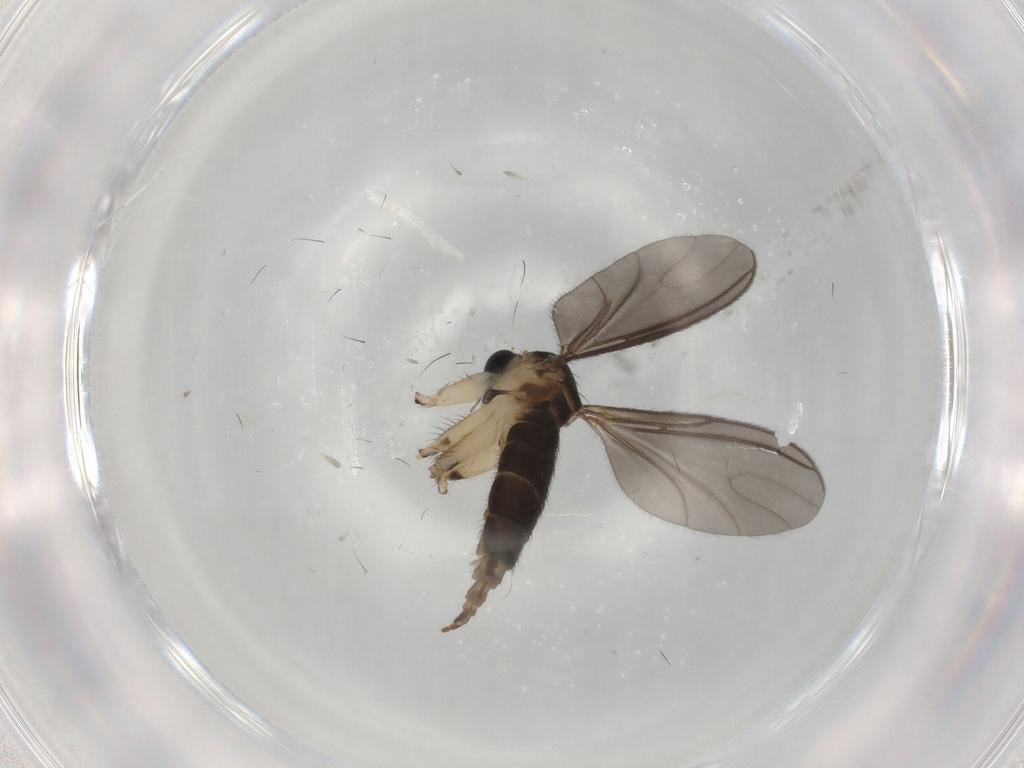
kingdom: Animalia
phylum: Arthropoda
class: Insecta
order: Diptera
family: Sciaridae
